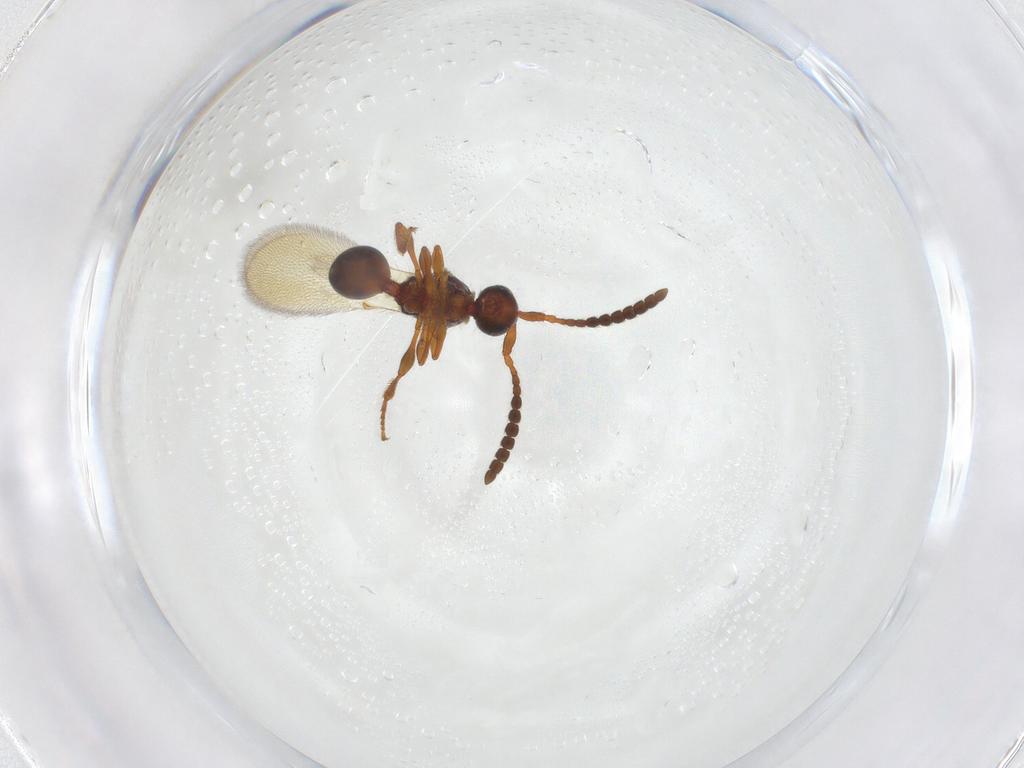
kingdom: Animalia
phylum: Arthropoda
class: Insecta
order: Hymenoptera
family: Diapriidae
